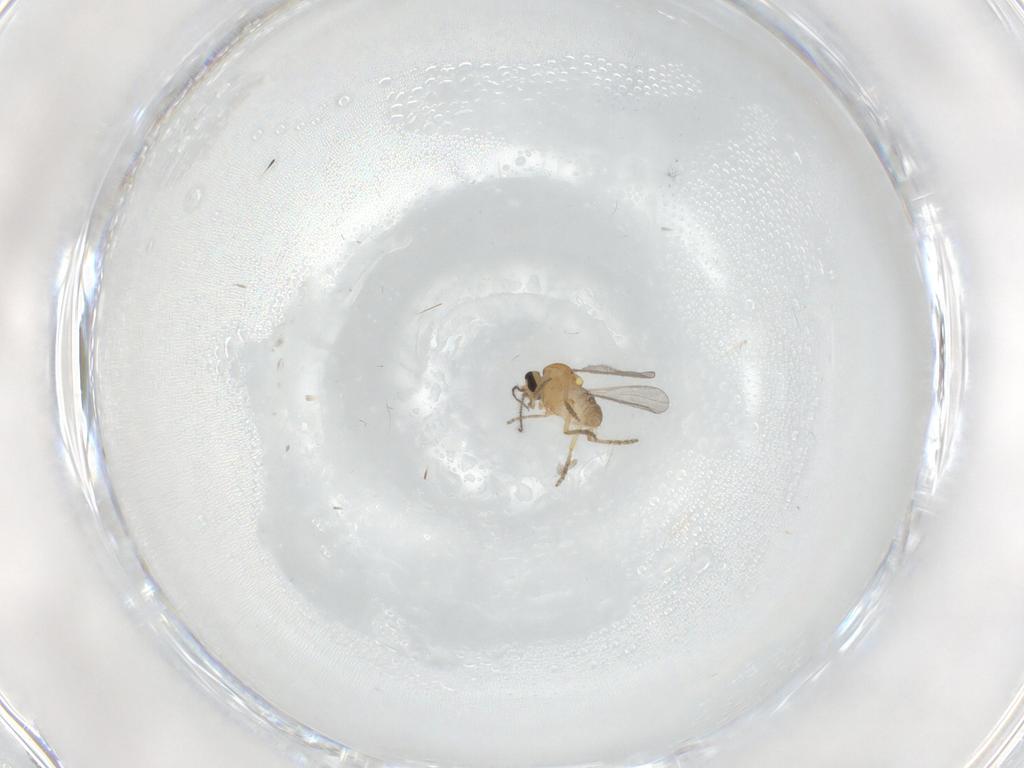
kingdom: Animalia
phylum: Arthropoda
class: Insecta
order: Diptera
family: Ceratopogonidae
